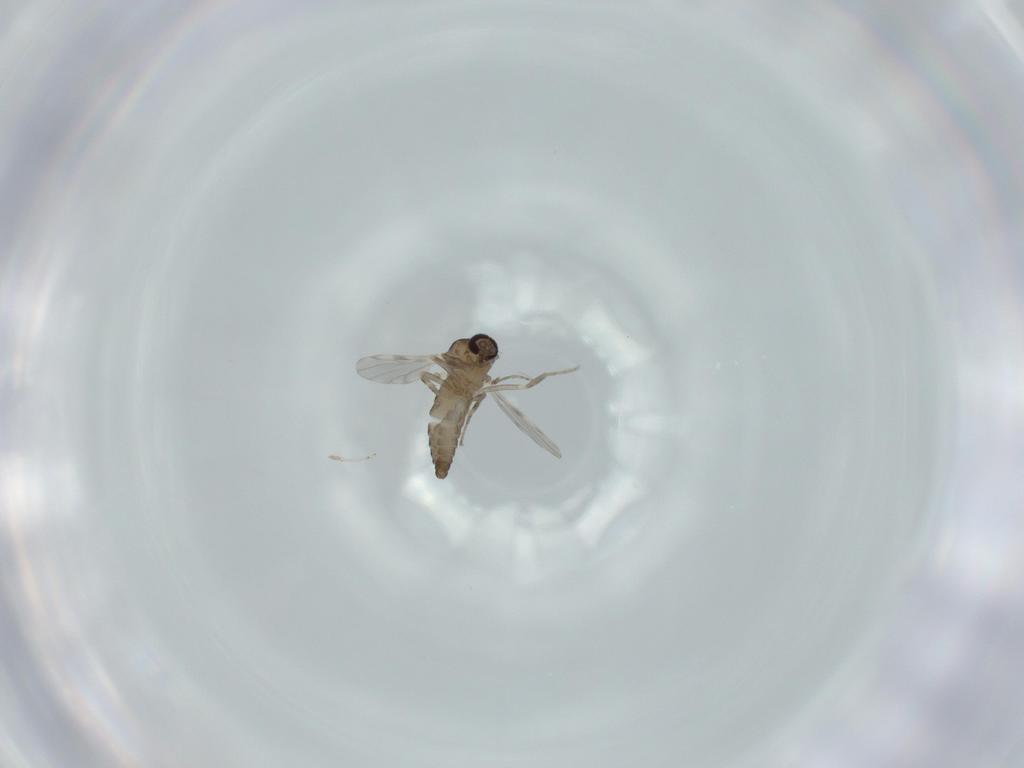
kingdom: Animalia
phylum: Arthropoda
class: Insecta
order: Diptera
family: Ceratopogonidae
